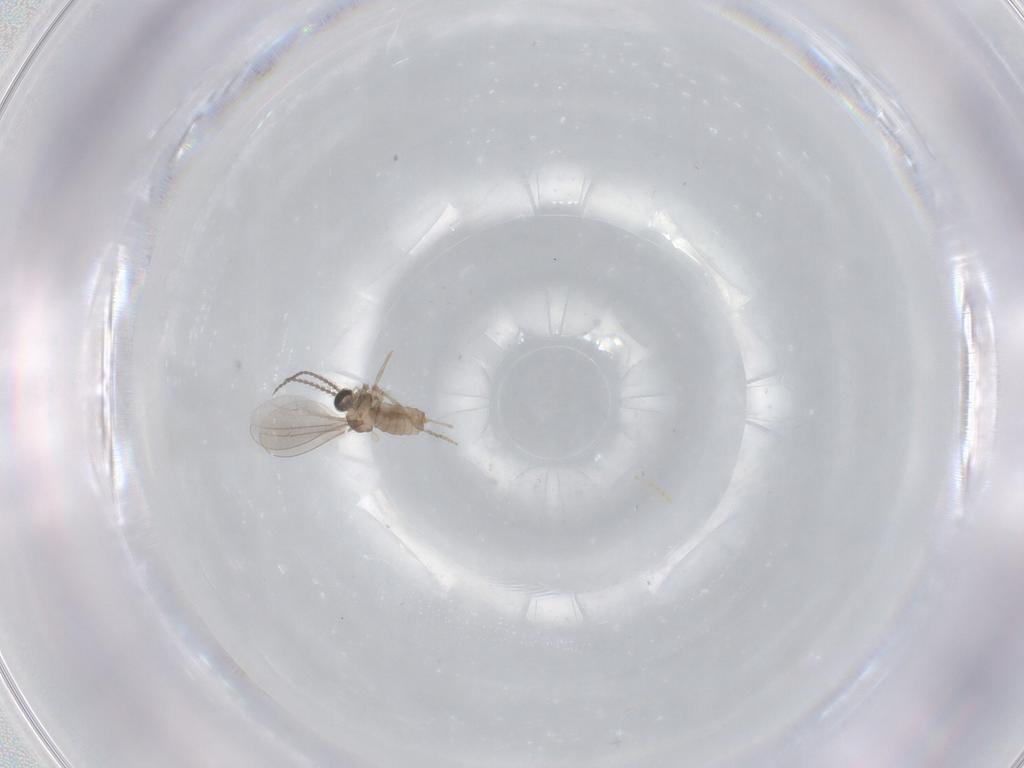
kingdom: Animalia
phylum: Arthropoda
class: Insecta
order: Diptera
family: Cecidomyiidae
